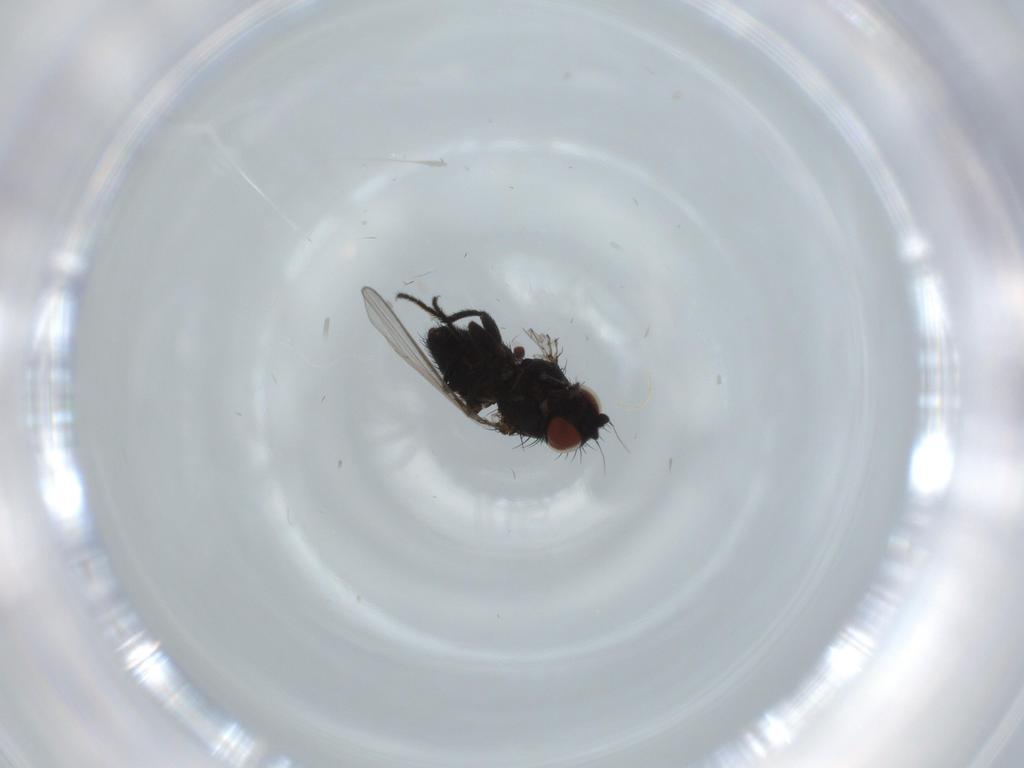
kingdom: Animalia
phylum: Arthropoda
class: Insecta
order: Diptera
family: Milichiidae
